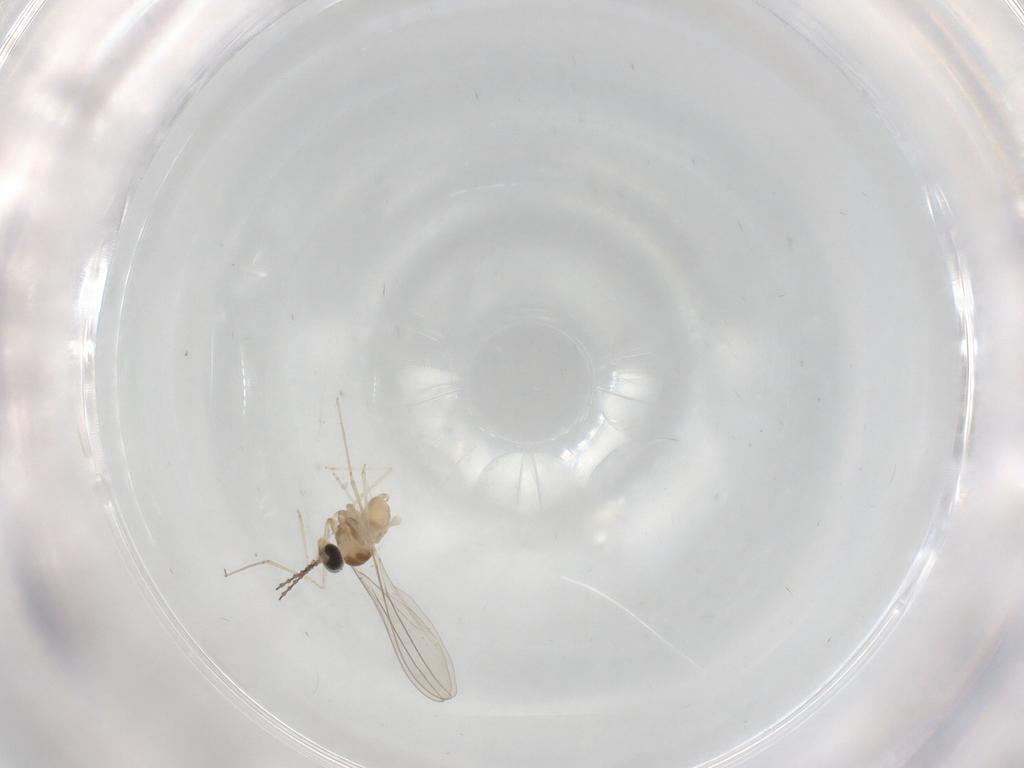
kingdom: Animalia
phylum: Arthropoda
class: Insecta
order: Diptera
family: Cecidomyiidae
